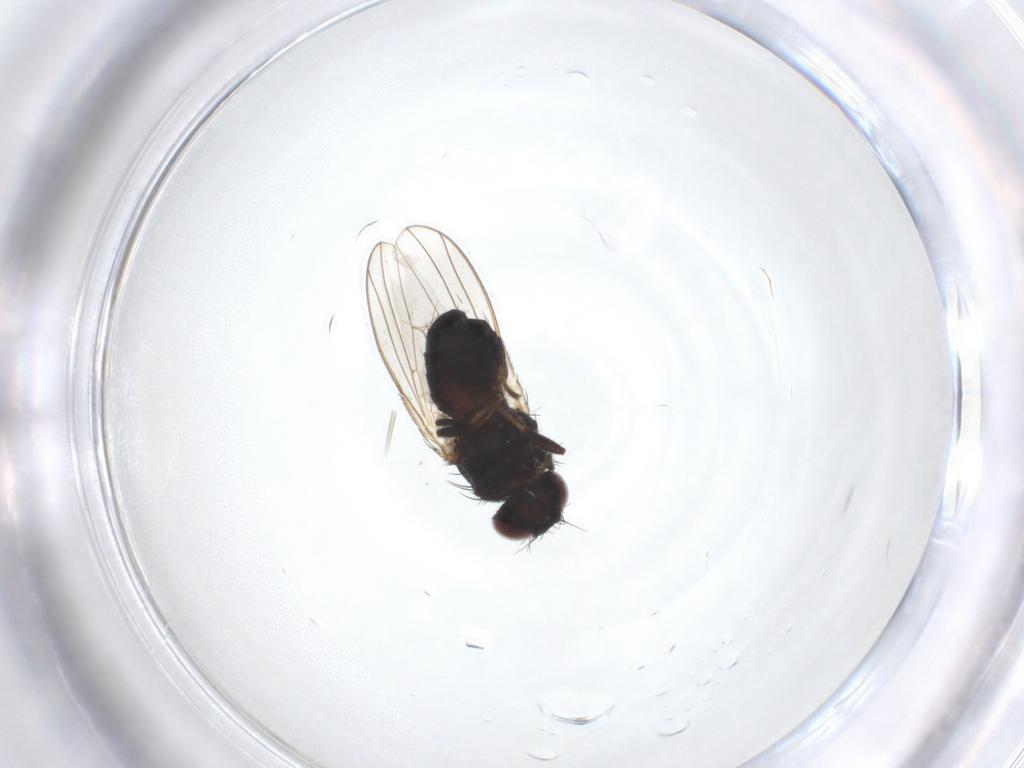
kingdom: Animalia
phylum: Arthropoda
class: Insecta
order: Diptera
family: Carnidae
